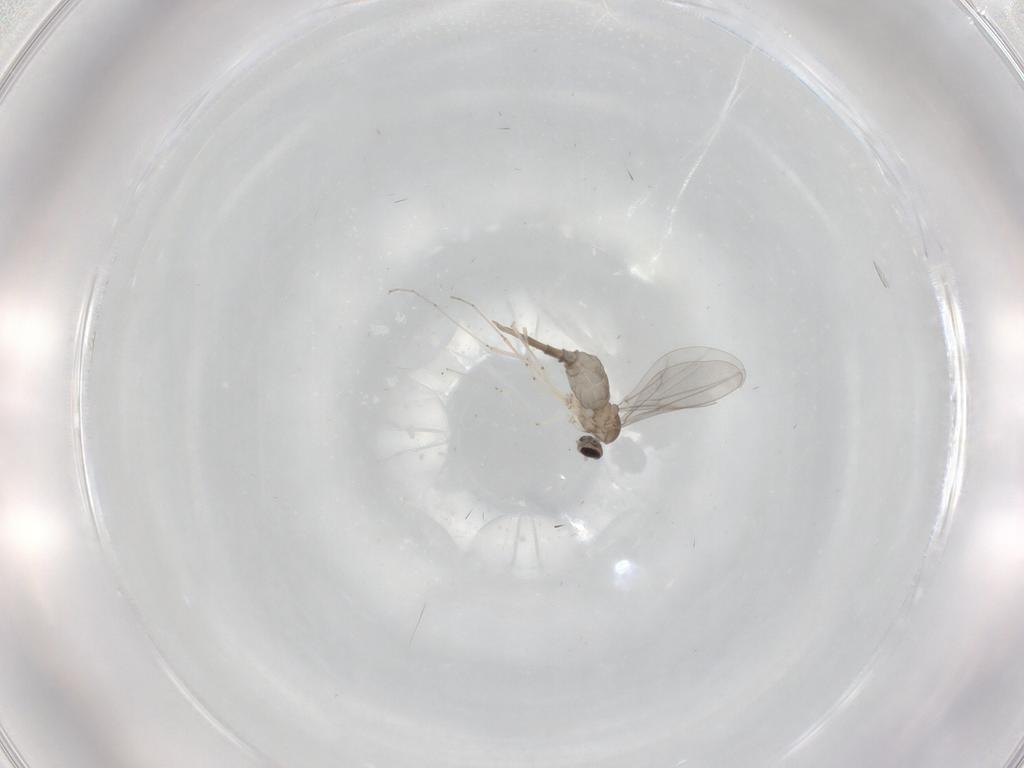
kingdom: Animalia
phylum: Arthropoda
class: Insecta
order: Diptera
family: Cecidomyiidae
